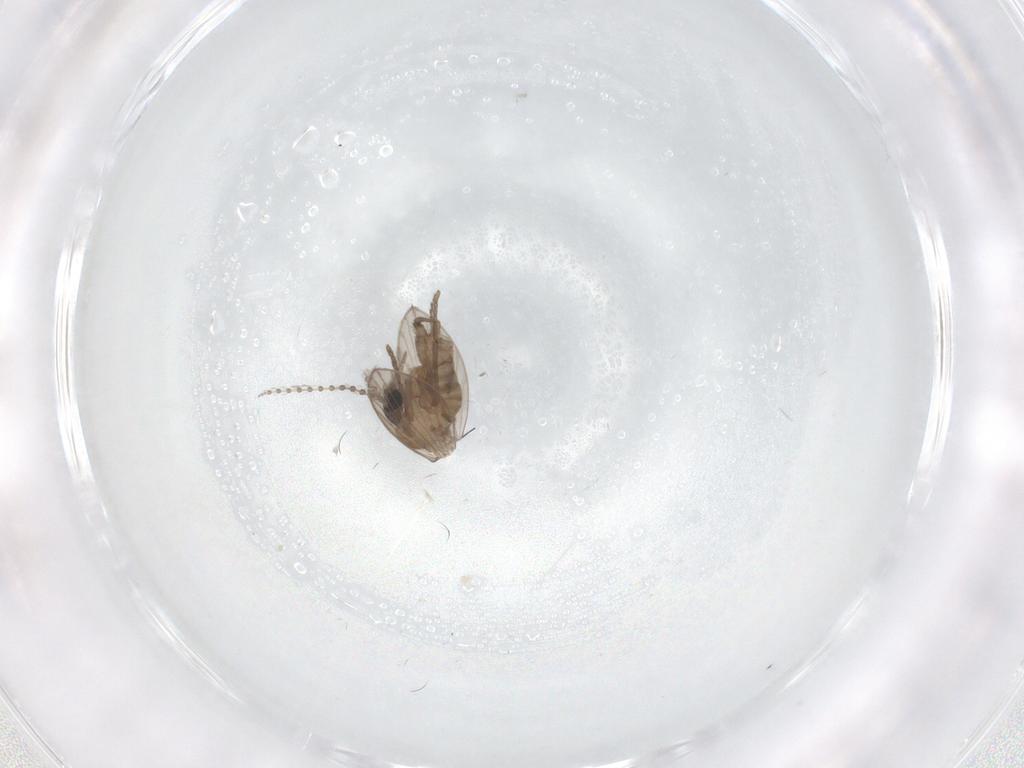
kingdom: Animalia
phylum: Arthropoda
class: Insecta
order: Diptera
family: Psychodidae
